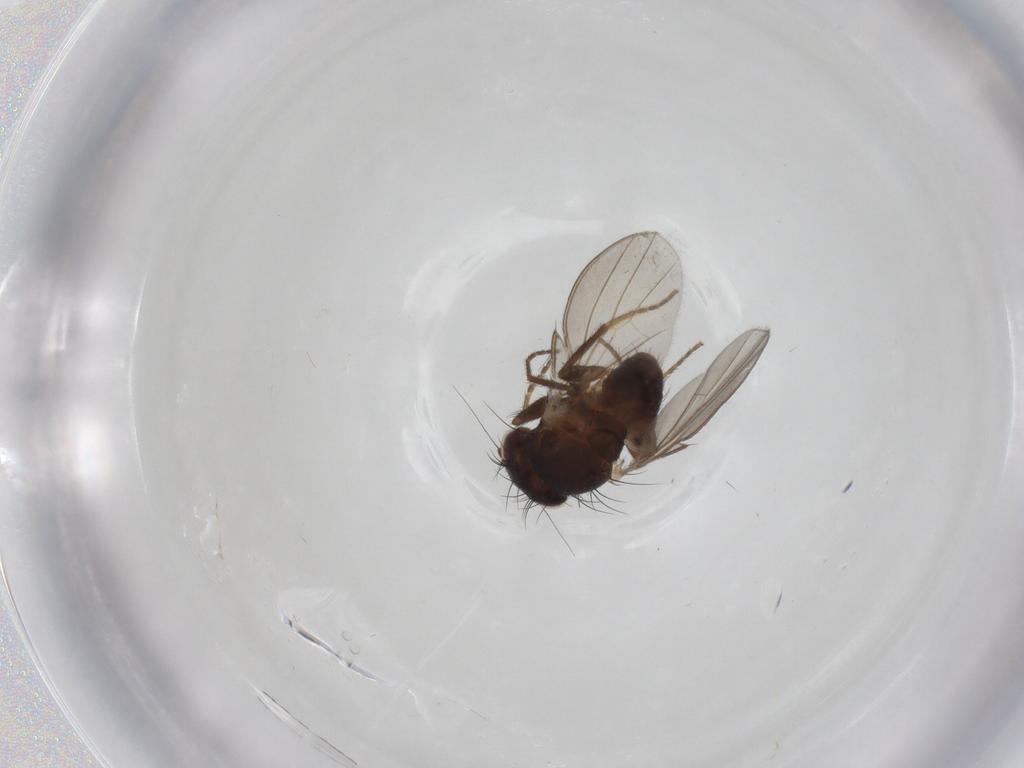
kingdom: Animalia
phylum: Arthropoda
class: Insecta
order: Diptera
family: Chironomidae
